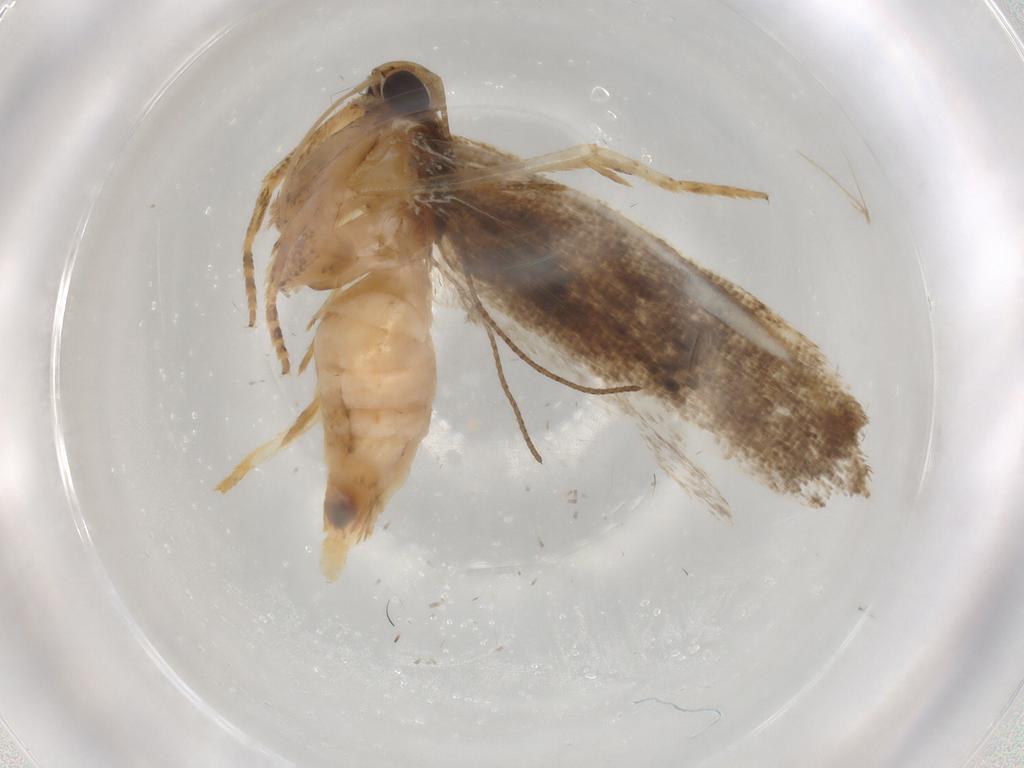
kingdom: Animalia
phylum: Arthropoda
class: Insecta
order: Lepidoptera
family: Gelechiidae
